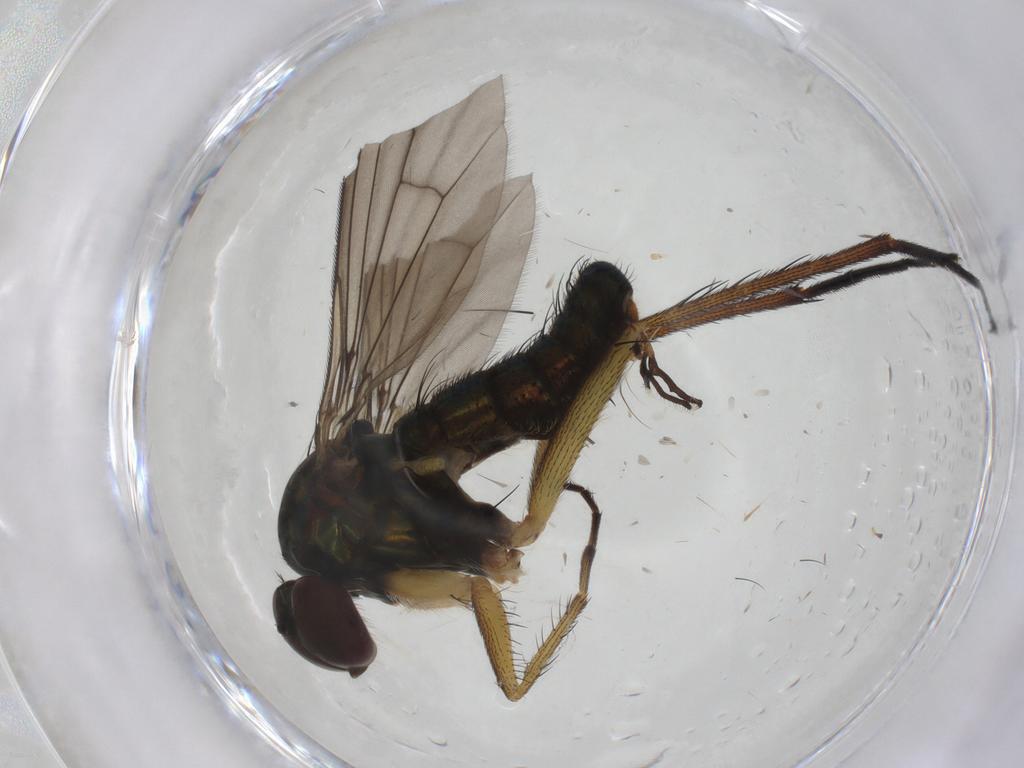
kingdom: Animalia
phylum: Arthropoda
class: Insecta
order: Diptera
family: Dolichopodidae
